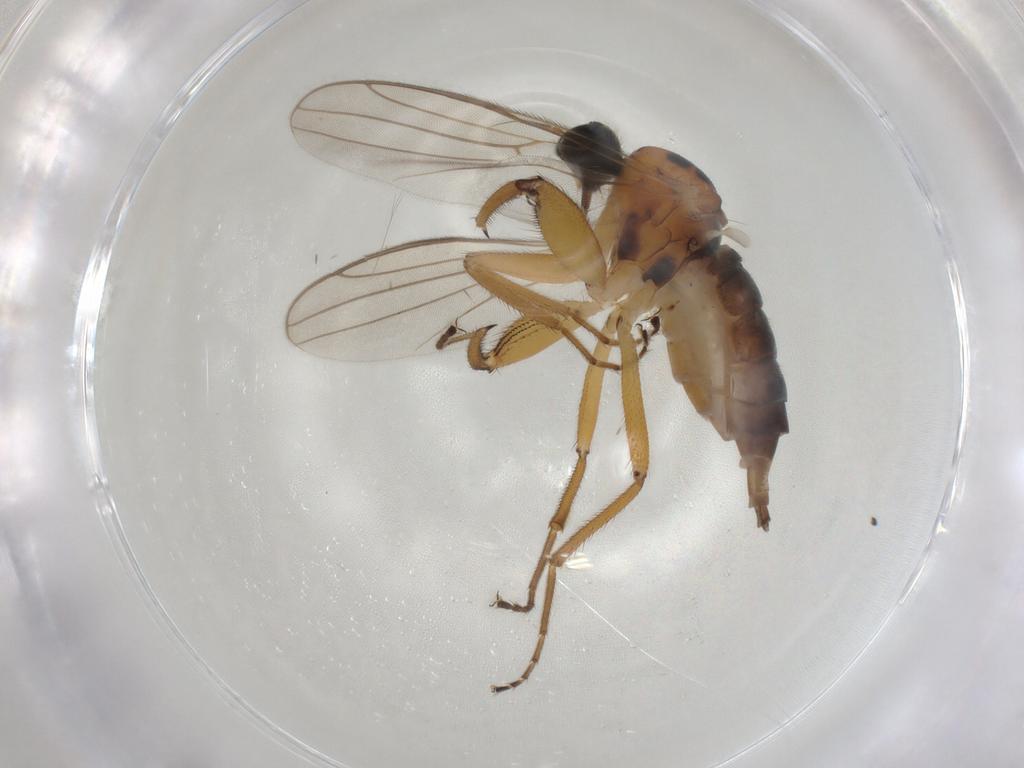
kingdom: Animalia
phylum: Arthropoda
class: Insecta
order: Diptera
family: Hybotidae
